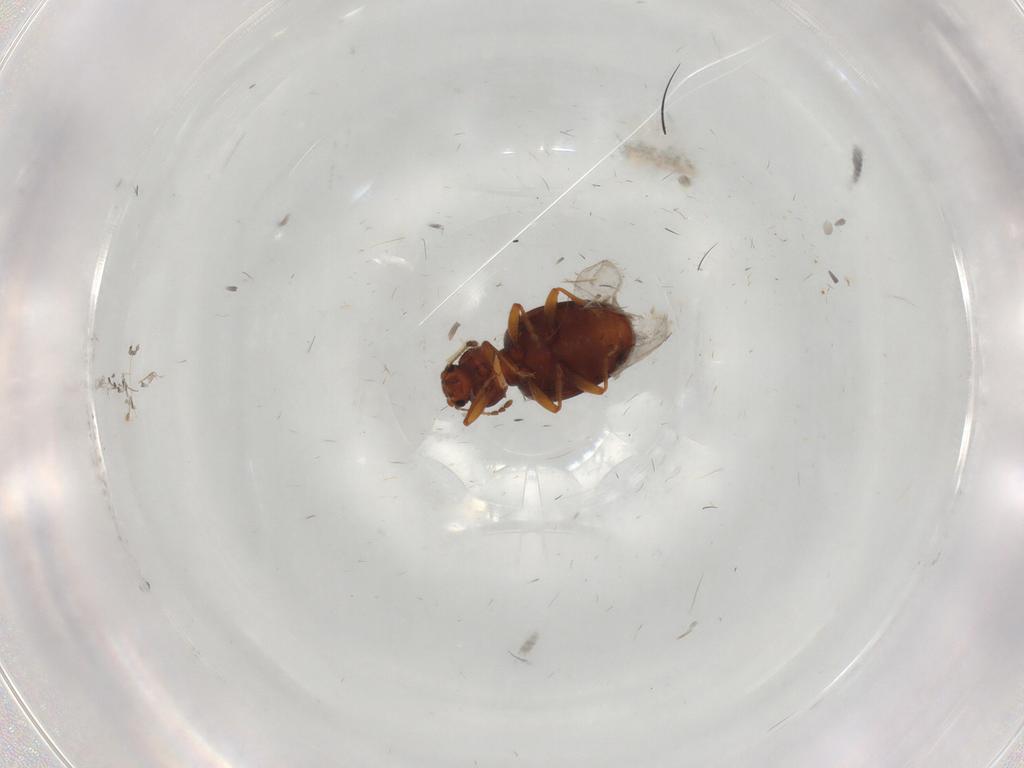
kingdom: Animalia
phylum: Arthropoda
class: Insecta
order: Coleoptera
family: Latridiidae
